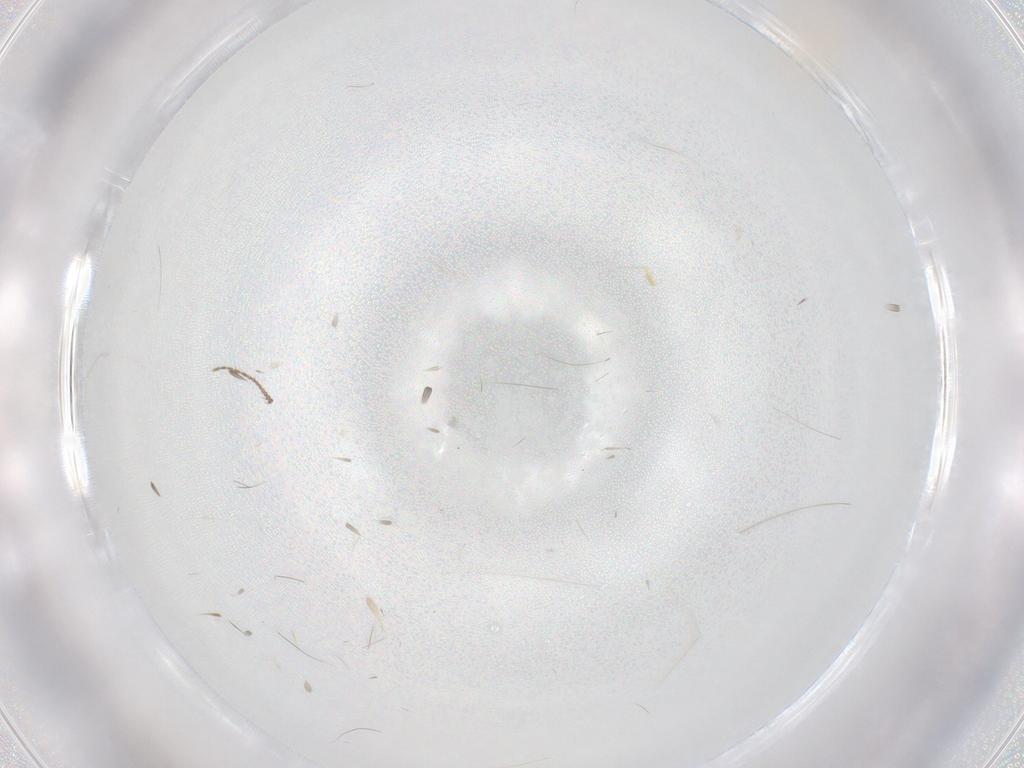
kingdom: Animalia
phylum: Arthropoda
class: Insecta
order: Diptera
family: Ceratopogonidae
